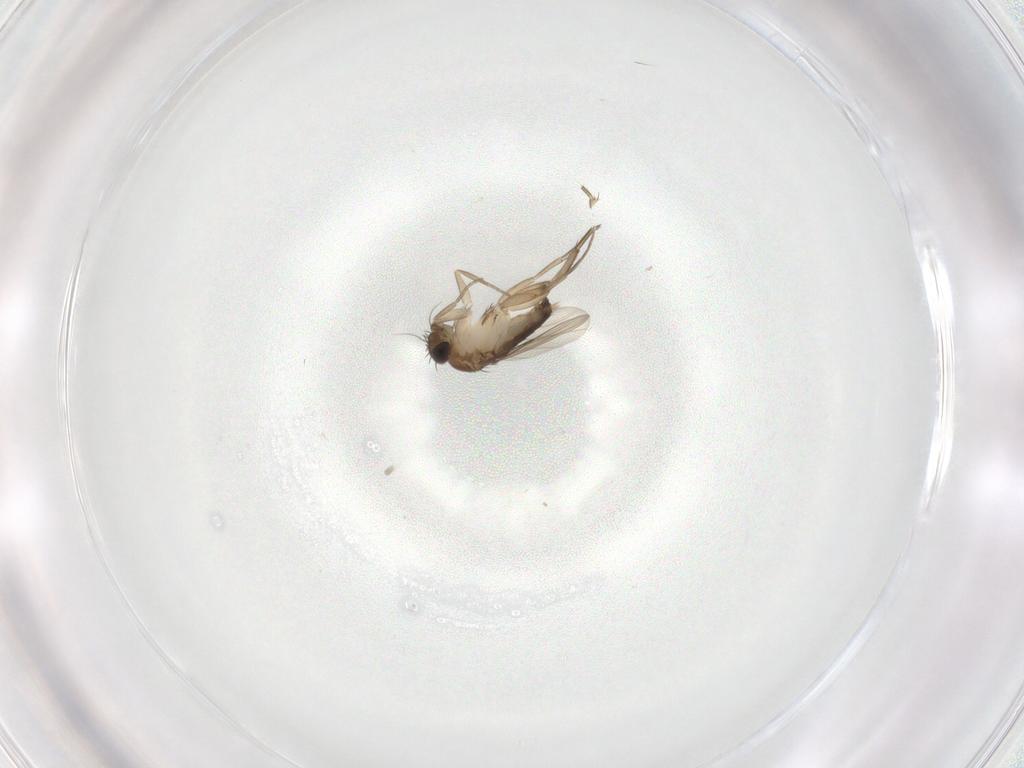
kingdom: Animalia
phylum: Arthropoda
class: Insecta
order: Diptera
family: Phoridae
